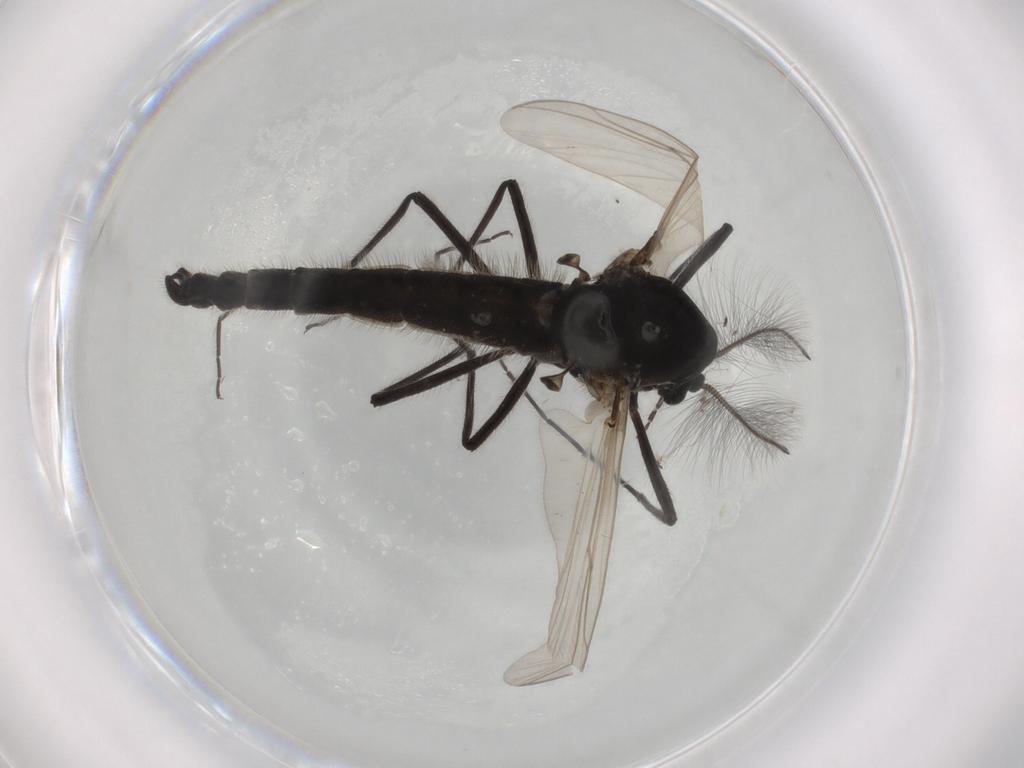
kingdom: Animalia
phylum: Arthropoda
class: Insecta
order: Diptera
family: Sciaridae
